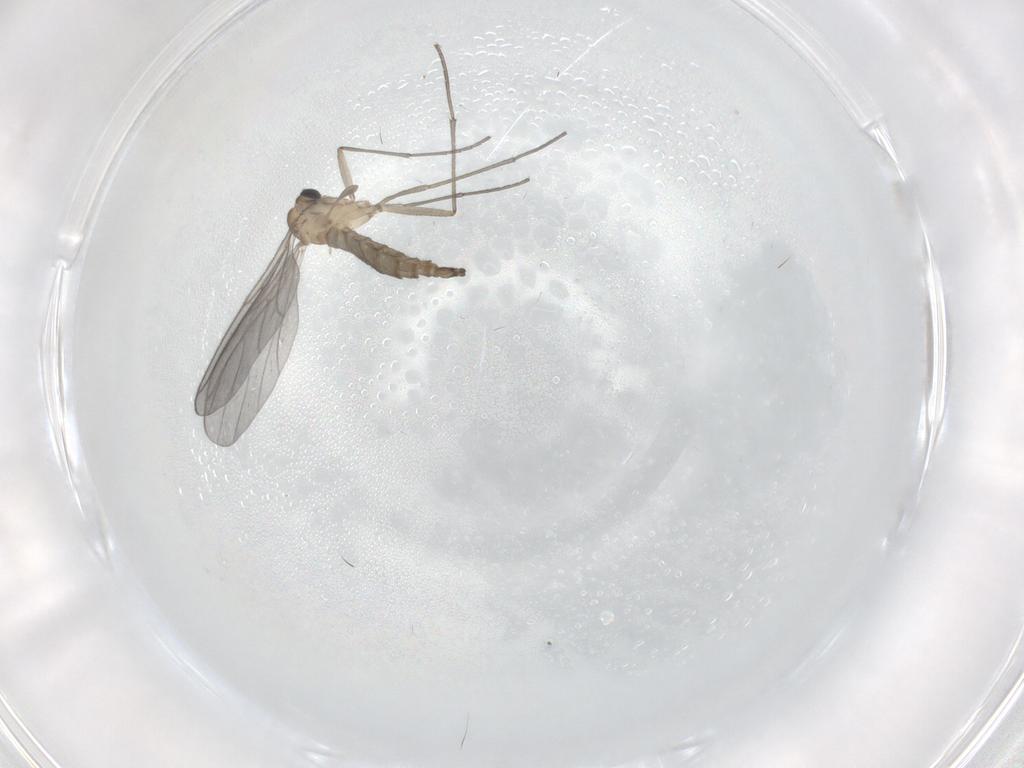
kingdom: Animalia
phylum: Arthropoda
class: Insecta
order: Diptera
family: Sciaridae
